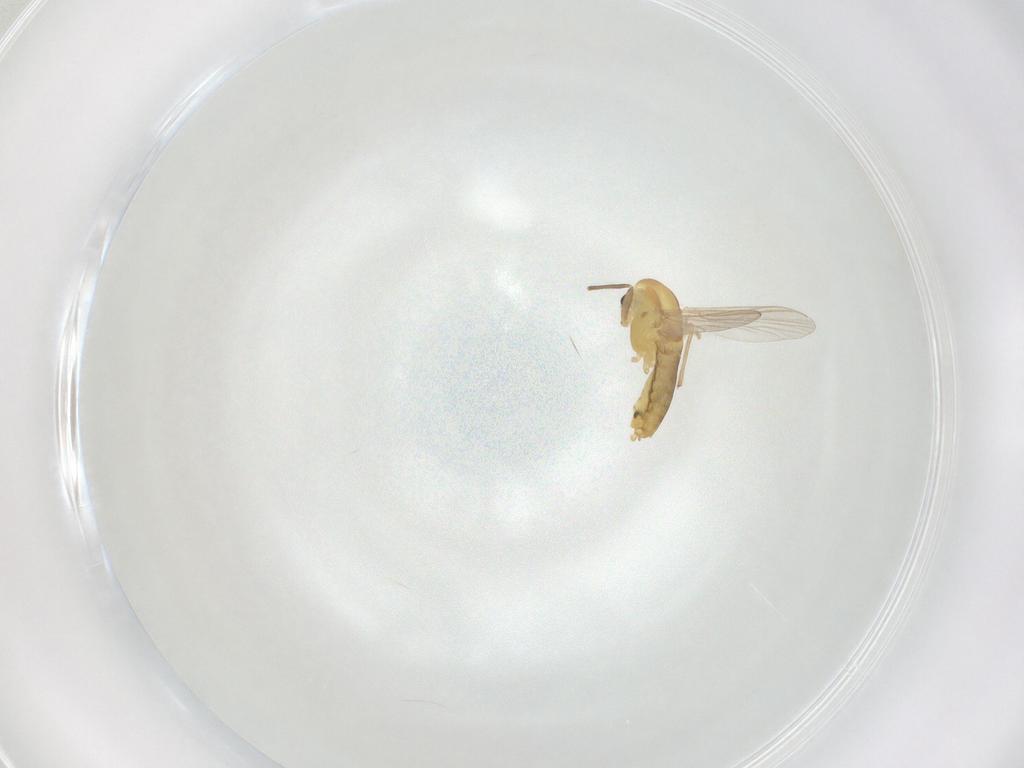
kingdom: Animalia
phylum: Arthropoda
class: Insecta
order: Diptera
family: Chironomidae
